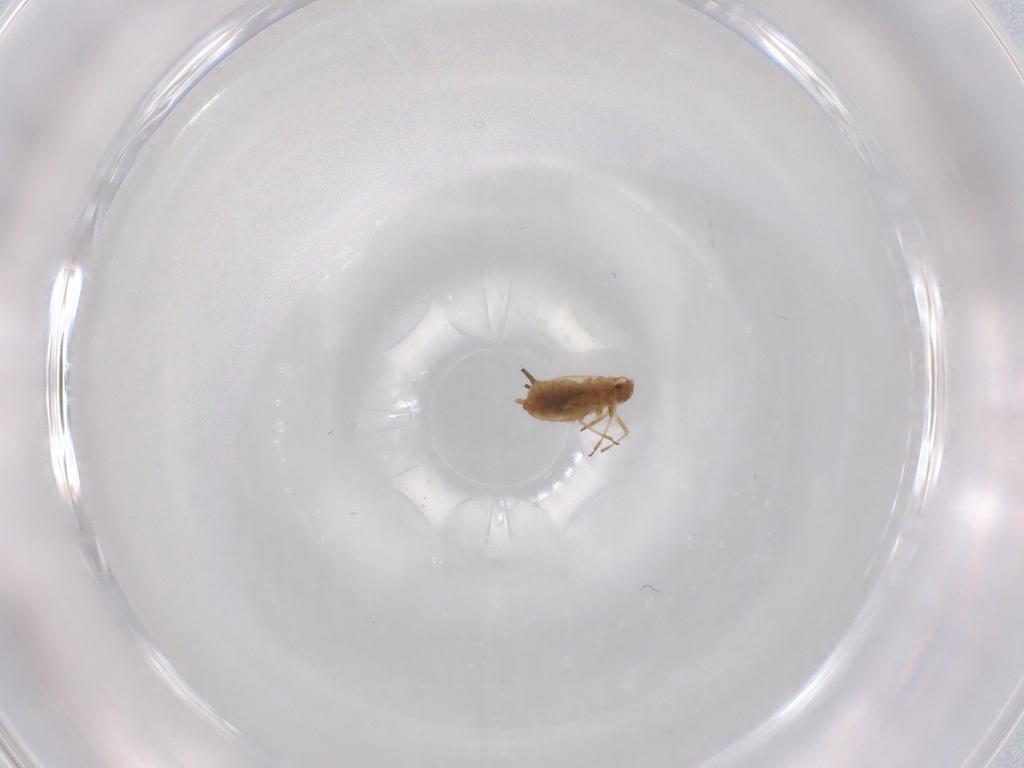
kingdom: Animalia
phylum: Arthropoda
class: Insecta
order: Hemiptera
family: Aphididae
